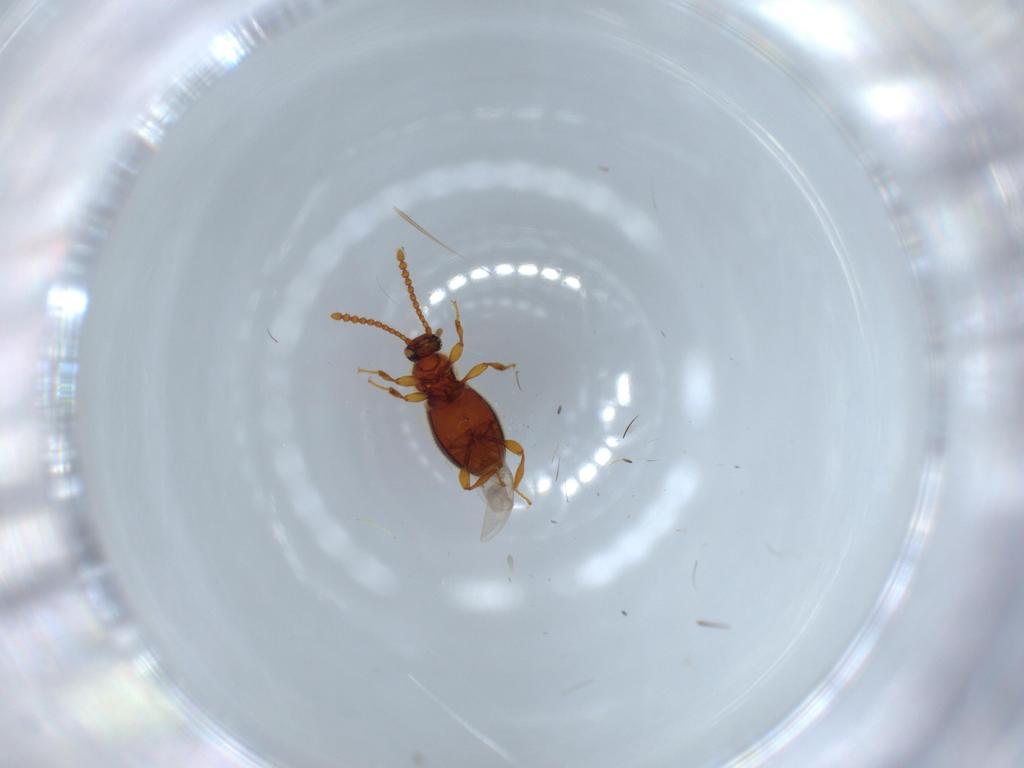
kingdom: Animalia
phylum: Arthropoda
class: Insecta
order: Coleoptera
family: Staphylinidae
